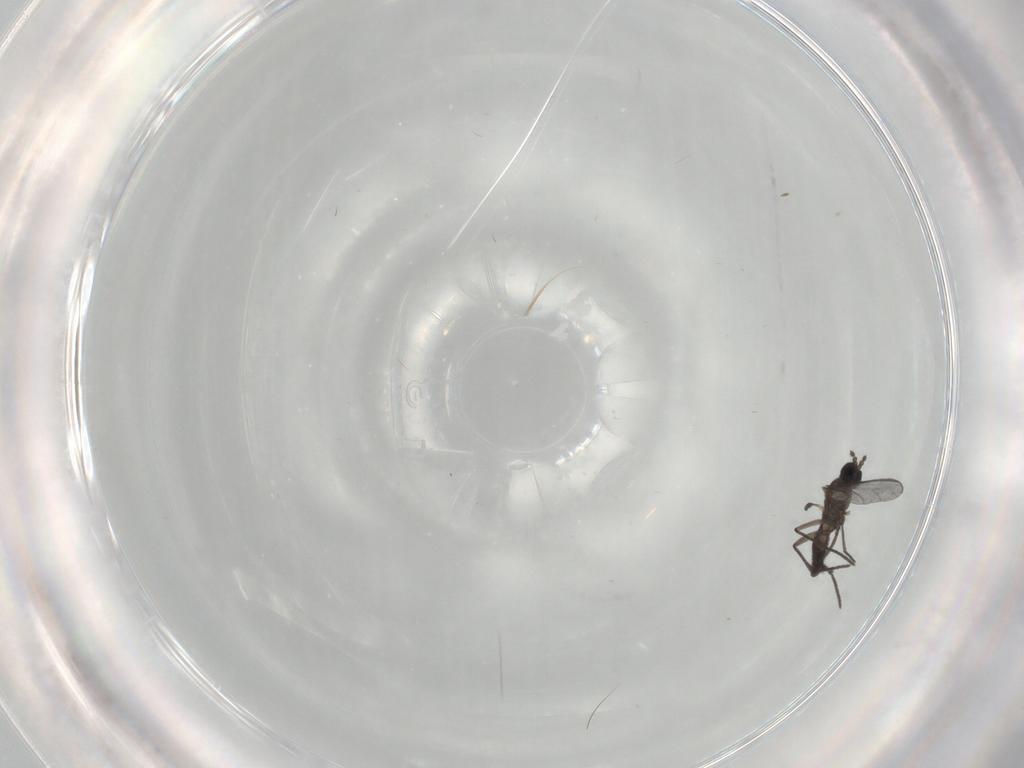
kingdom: Animalia
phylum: Arthropoda
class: Insecta
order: Diptera
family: Sciaridae
